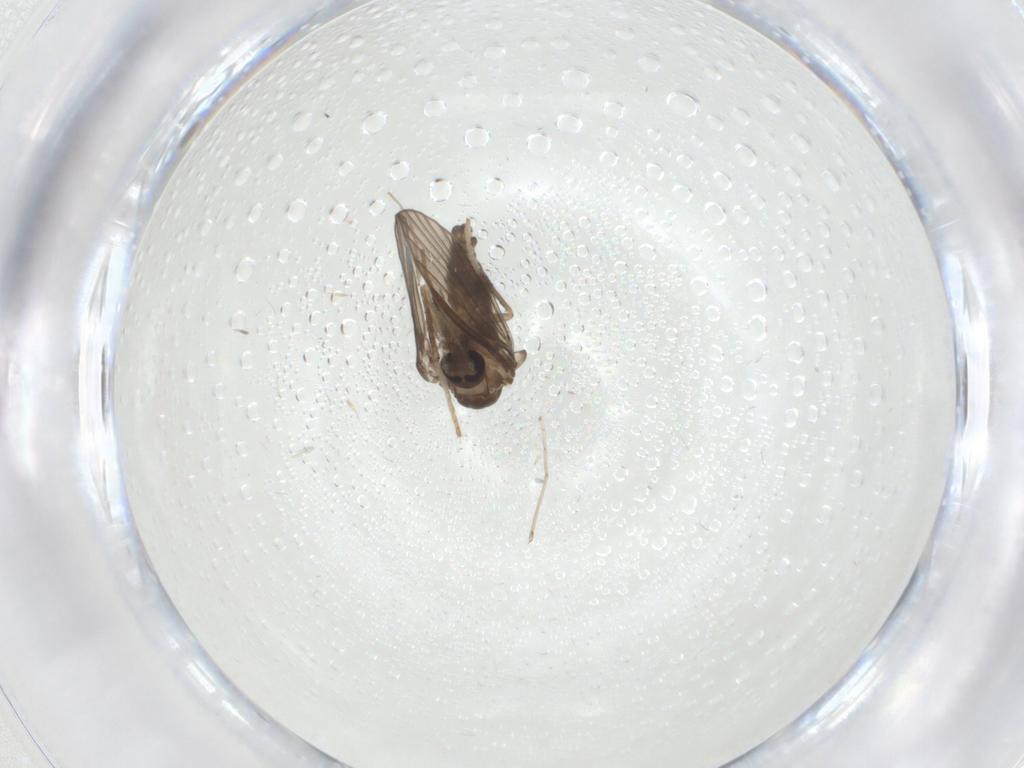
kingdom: Animalia
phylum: Arthropoda
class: Insecta
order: Diptera
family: Psychodidae
